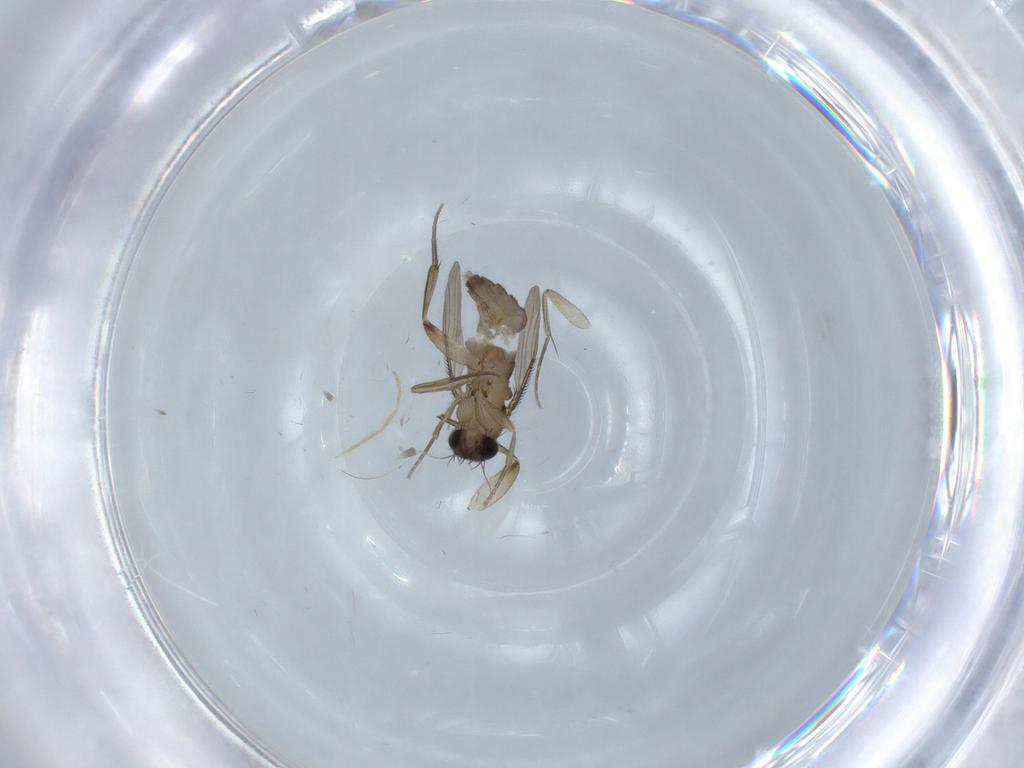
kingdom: Animalia
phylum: Arthropoda
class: Insecta
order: Diptera
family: Phoridae
